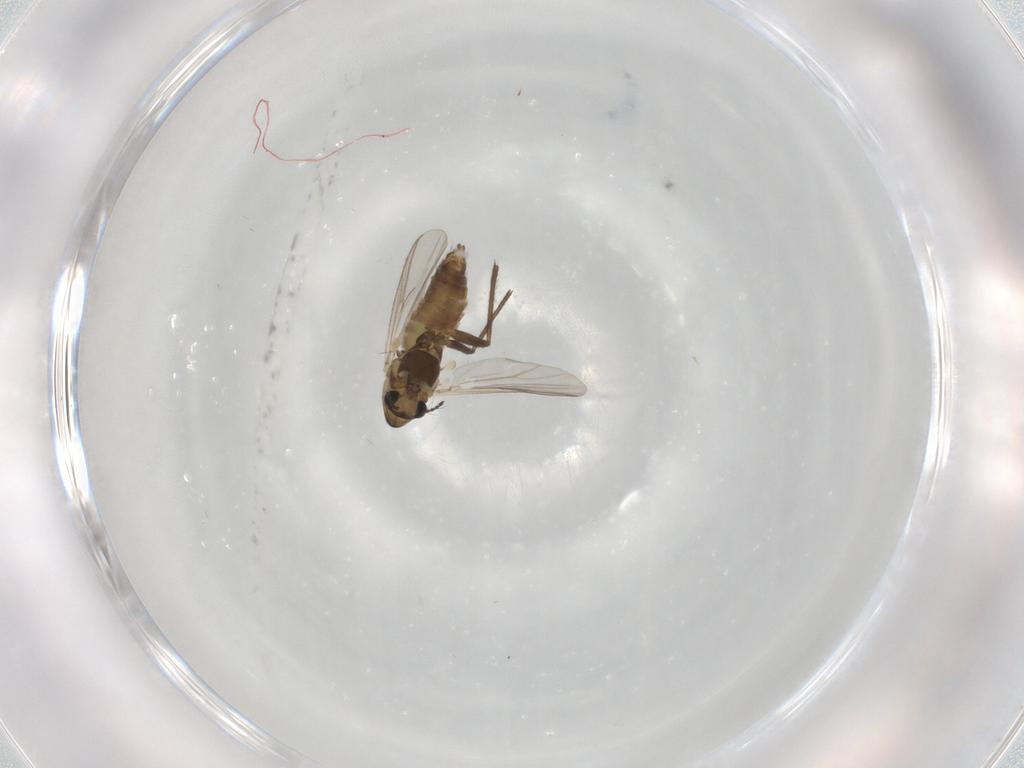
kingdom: Animalia
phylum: Arthropoda
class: Insecta
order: Diptera
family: Chironomidae
